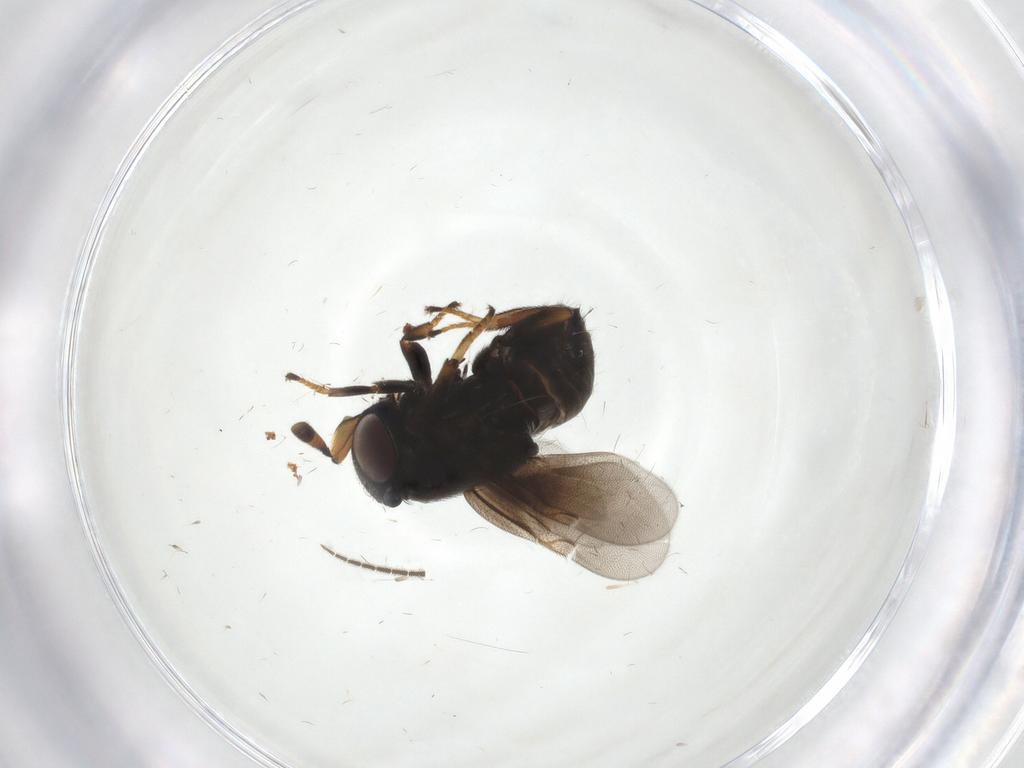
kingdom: Animalia
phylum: Arthropoda
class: Insecta
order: Hymenoptera
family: Encyrtidae
